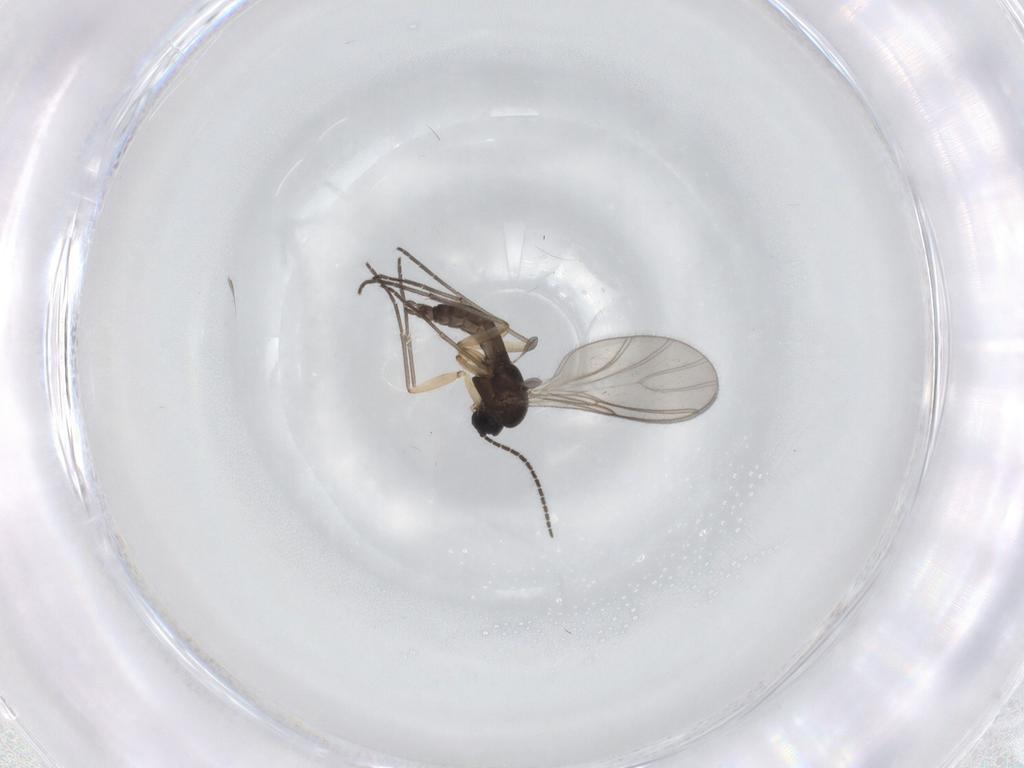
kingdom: Animalia
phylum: Arthropoda
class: Insecta
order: Diptera
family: Sciaridae
